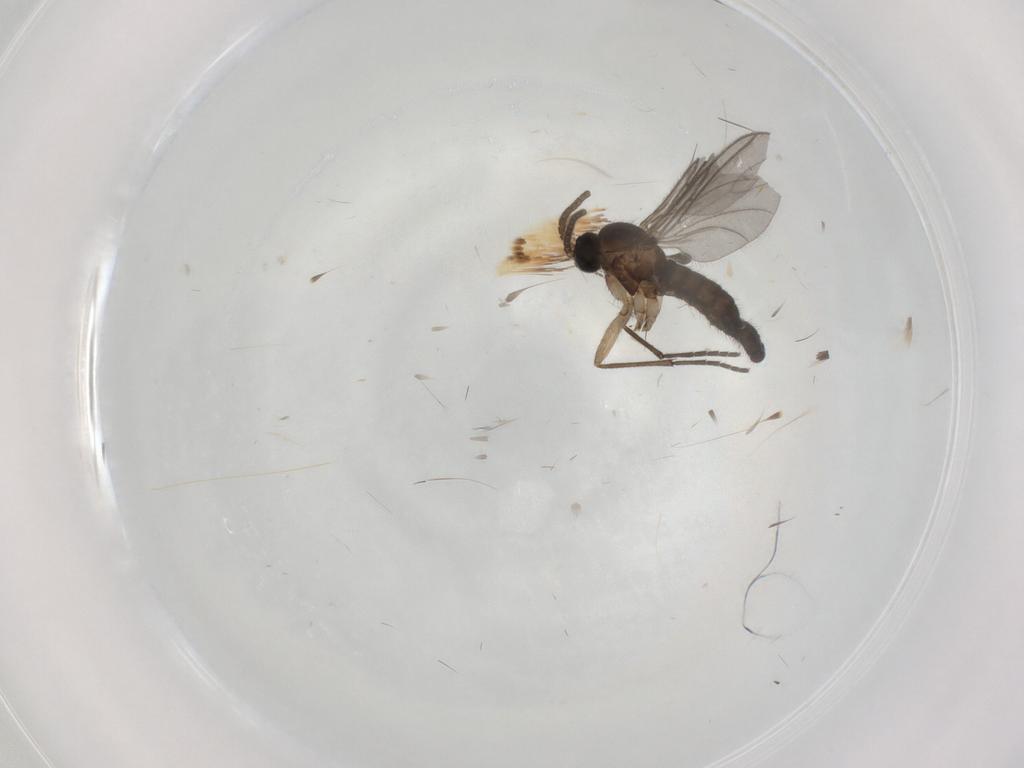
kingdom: Animalia
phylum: Arthropoda
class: Insecta
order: Diptera
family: Sciaridae
